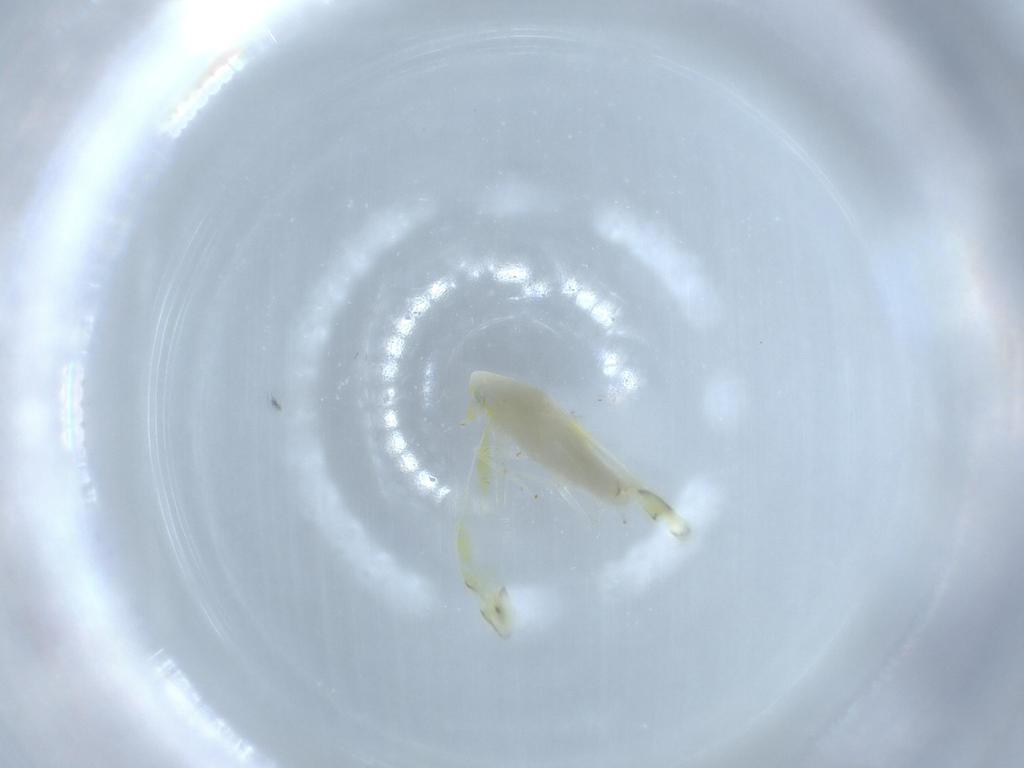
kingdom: Animalia
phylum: Arthropoda
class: Insecta
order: Hemiptera
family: Cicadellidae
